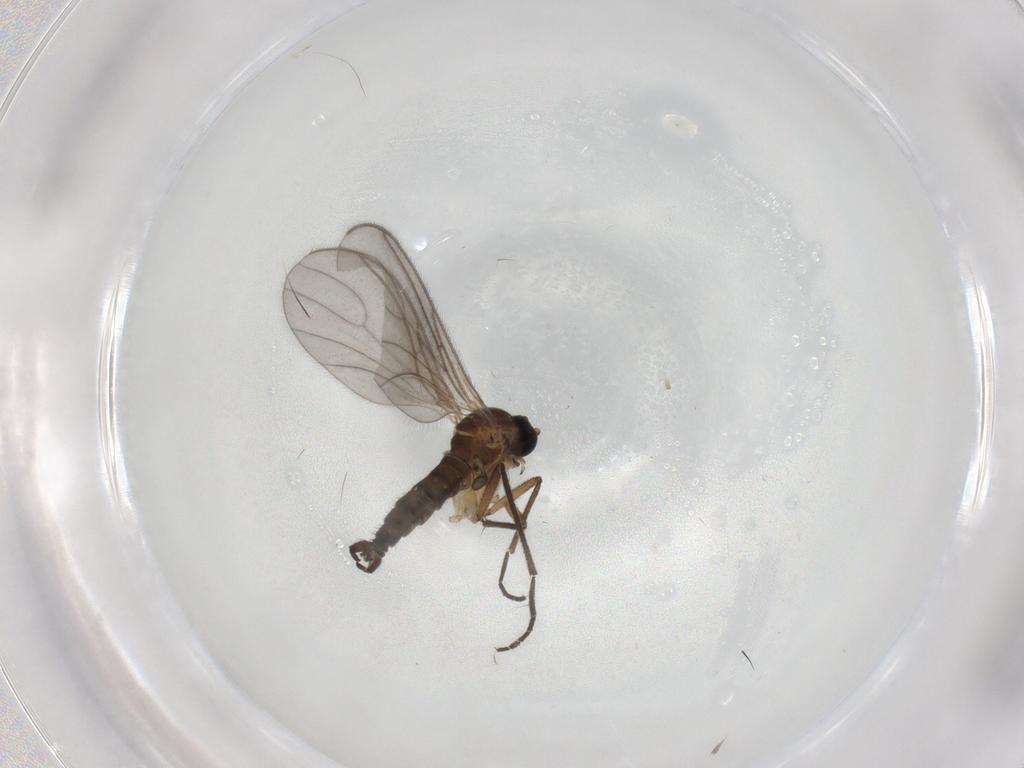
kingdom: Animalia
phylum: Arthropoda
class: Insecta
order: Diptera
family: Sciaridae
